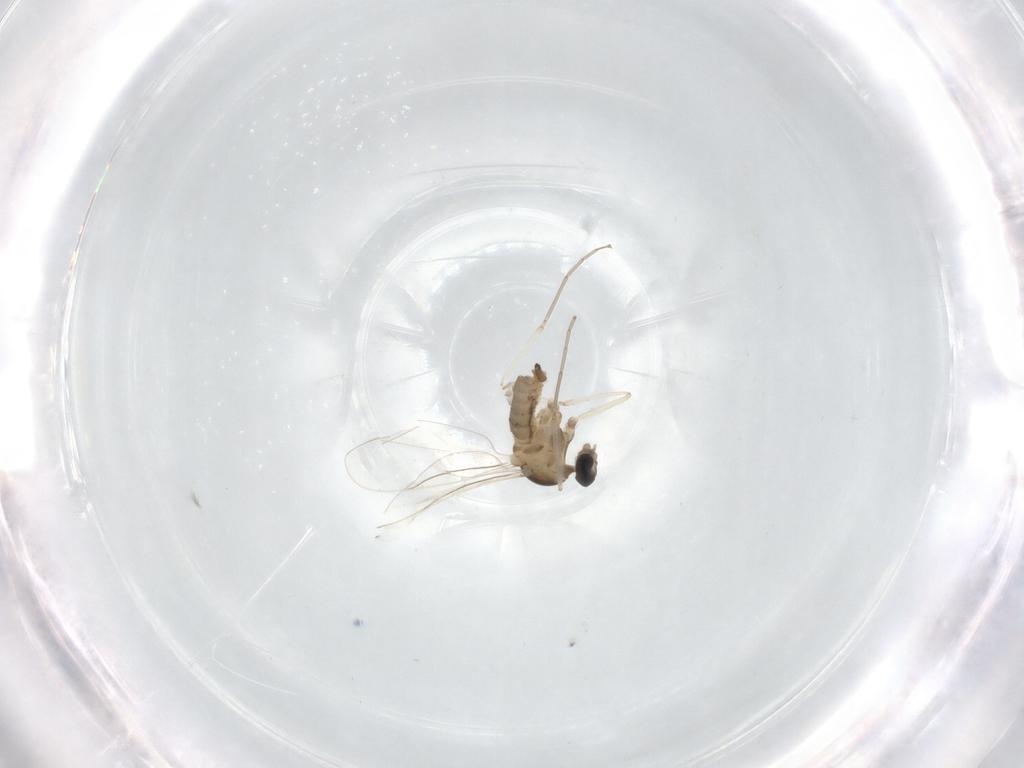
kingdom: Animalia
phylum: Arthropoda
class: Insecta
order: Diptera
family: Cecidomyiidae
